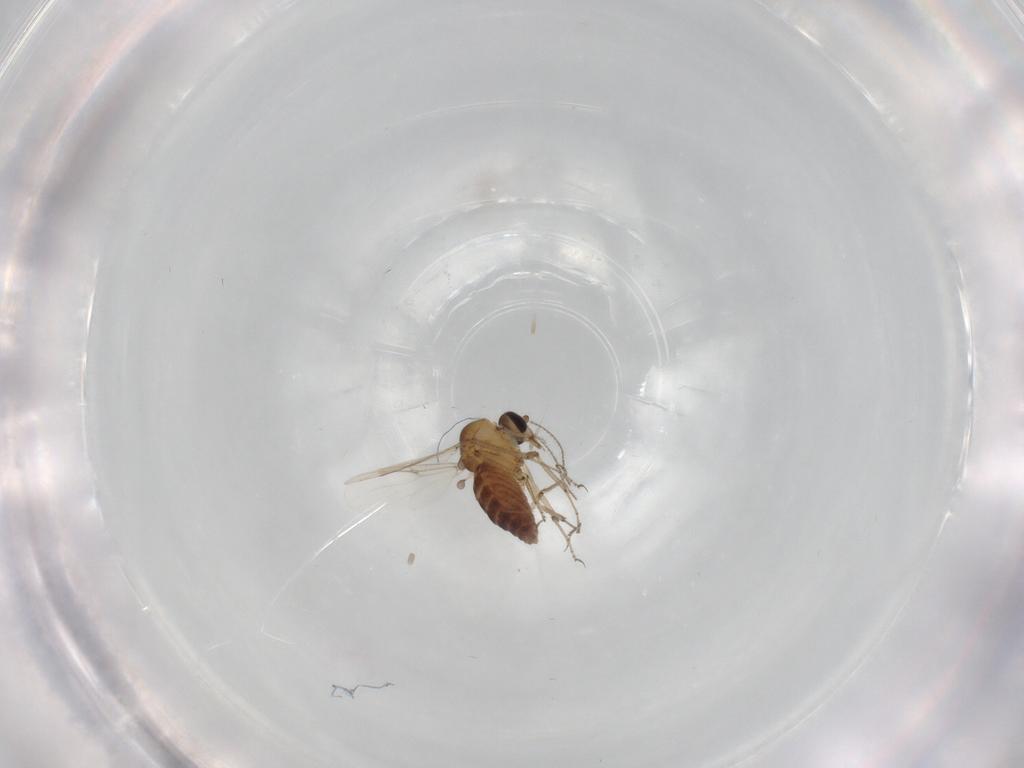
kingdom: Animalia
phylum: Arthropoda
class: Insecta
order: Diptera
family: Ceratopogonidae
